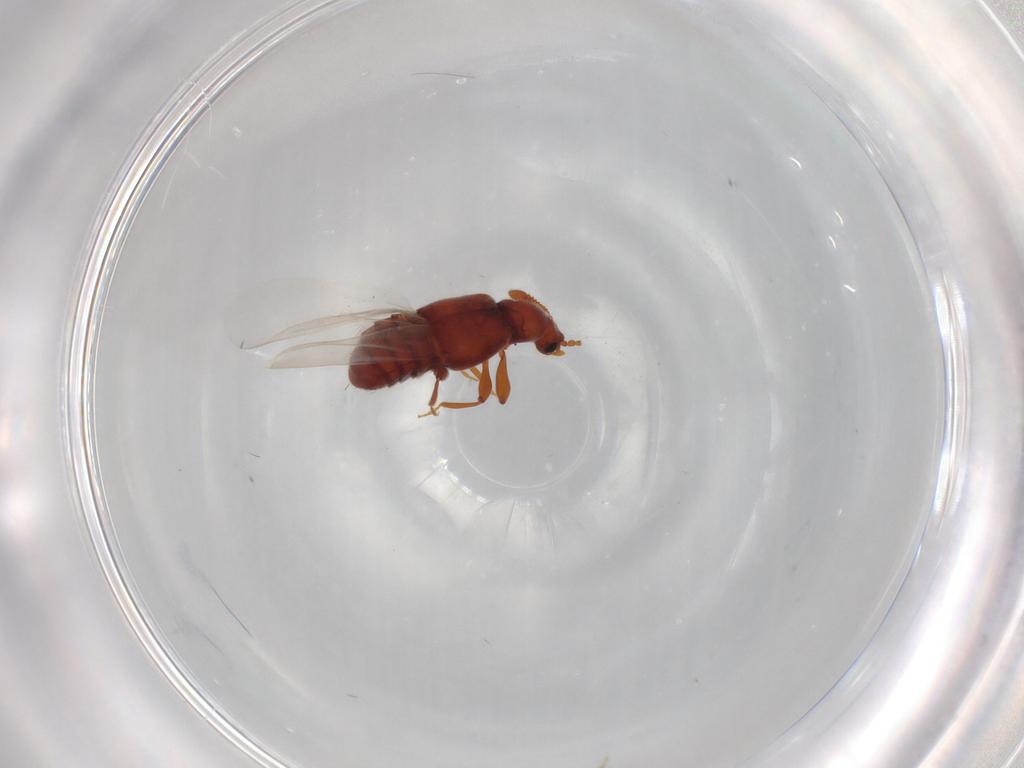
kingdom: Animalia
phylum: Arthropoda
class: Insecta
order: Coleoptera
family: Staphylinidae
